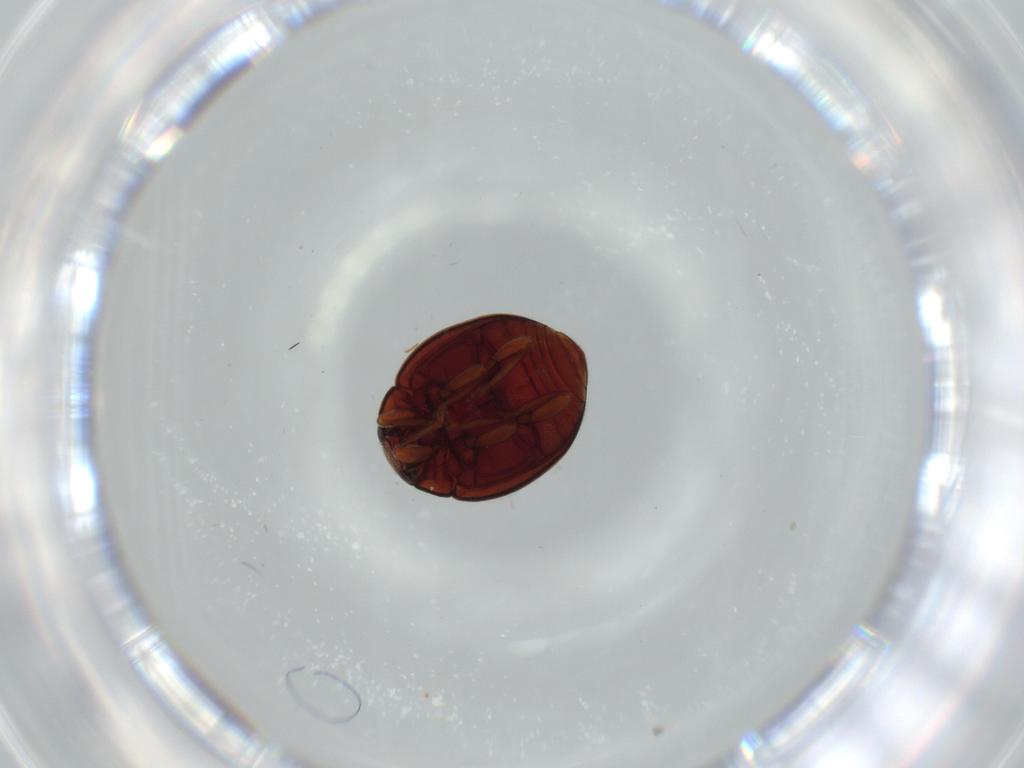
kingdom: Animalia
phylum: Arthropoda
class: Insecta
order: Coleoptera
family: Coccinellidae
